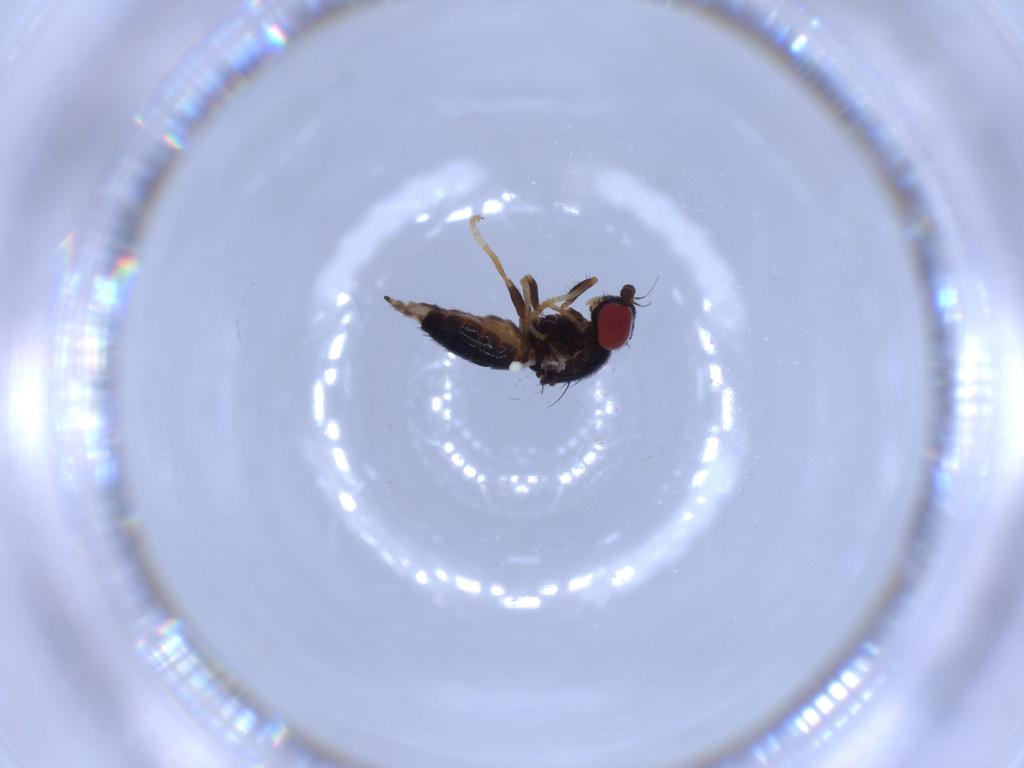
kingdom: Animalia
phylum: Arthropoda
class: Insecta
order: Diptera
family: Chamaemyiidae
